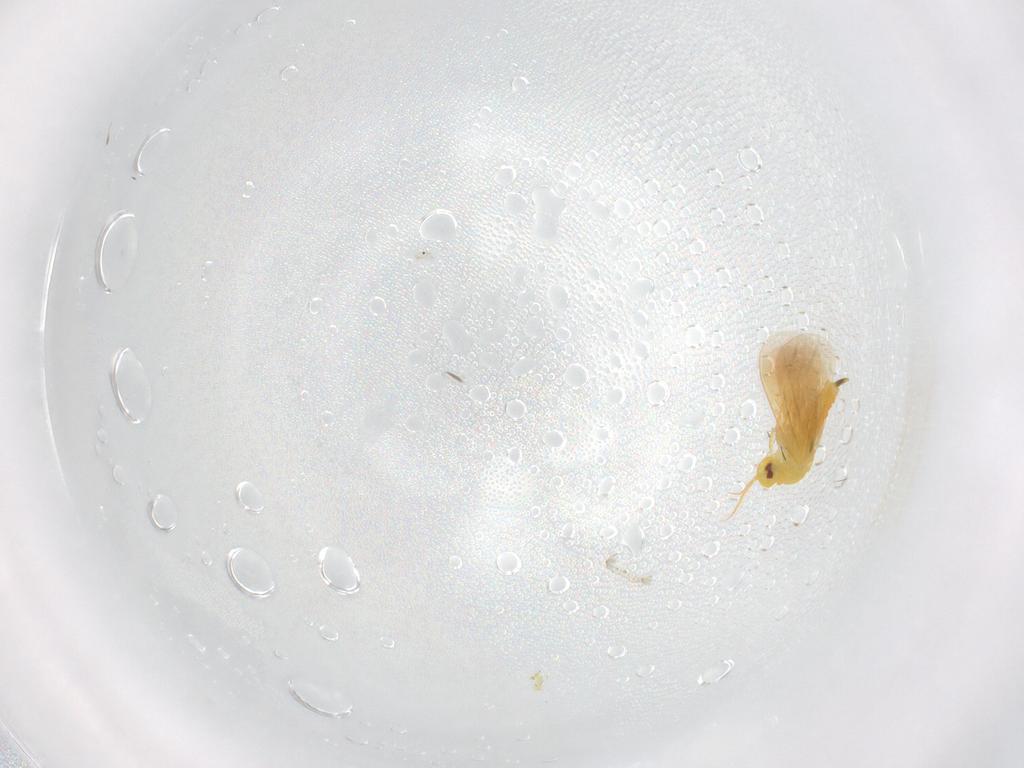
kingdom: Animalia
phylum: Arthropoda
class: Insecta
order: Hemiptera
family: Aleyrodidae
